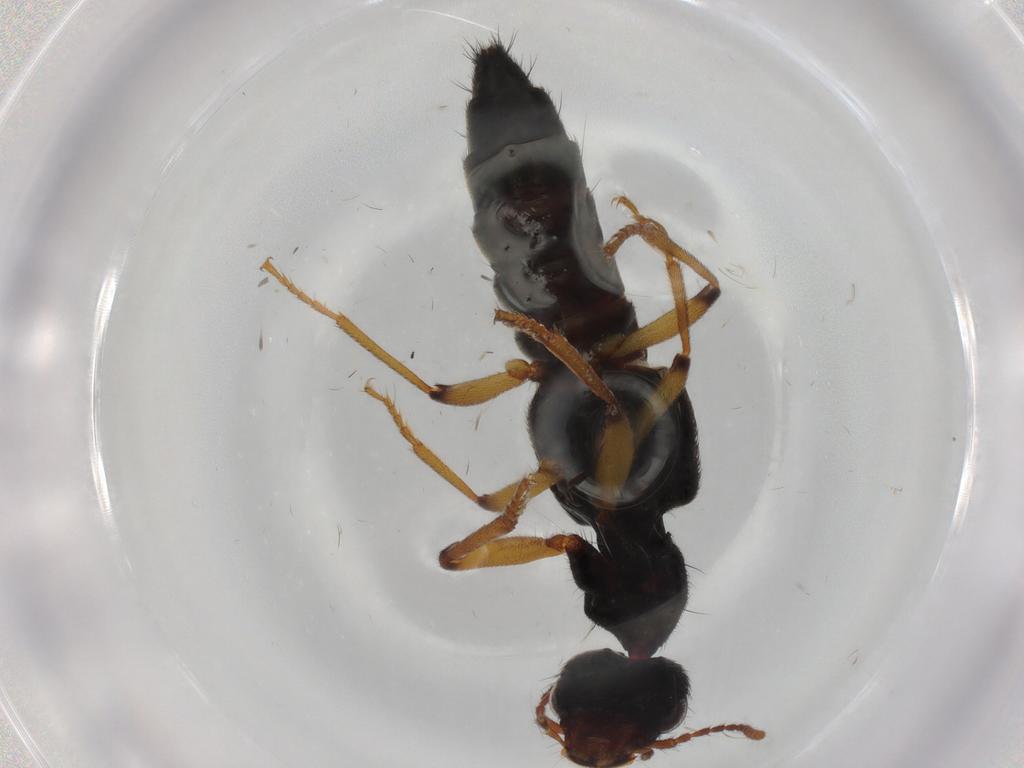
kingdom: Animalia
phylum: Arthropoda
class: Insecta
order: Coleoptera
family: Staphylinidae
